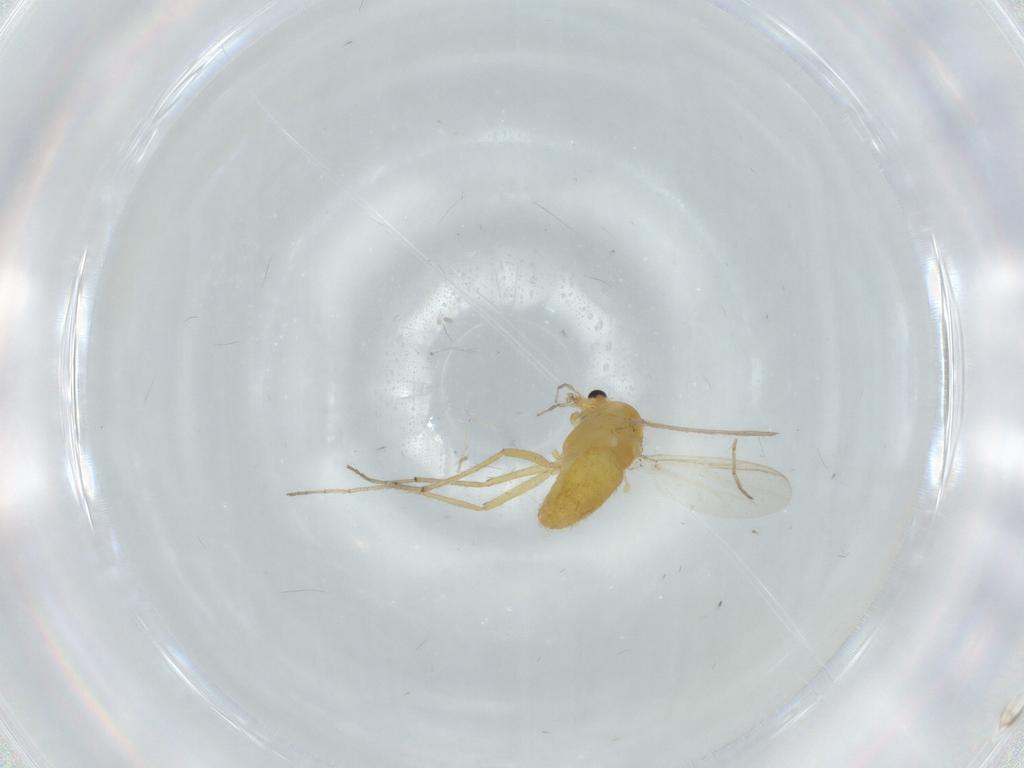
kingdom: Animalia
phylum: Arthropoda
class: Insecta
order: Diptera
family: Chironomidae
